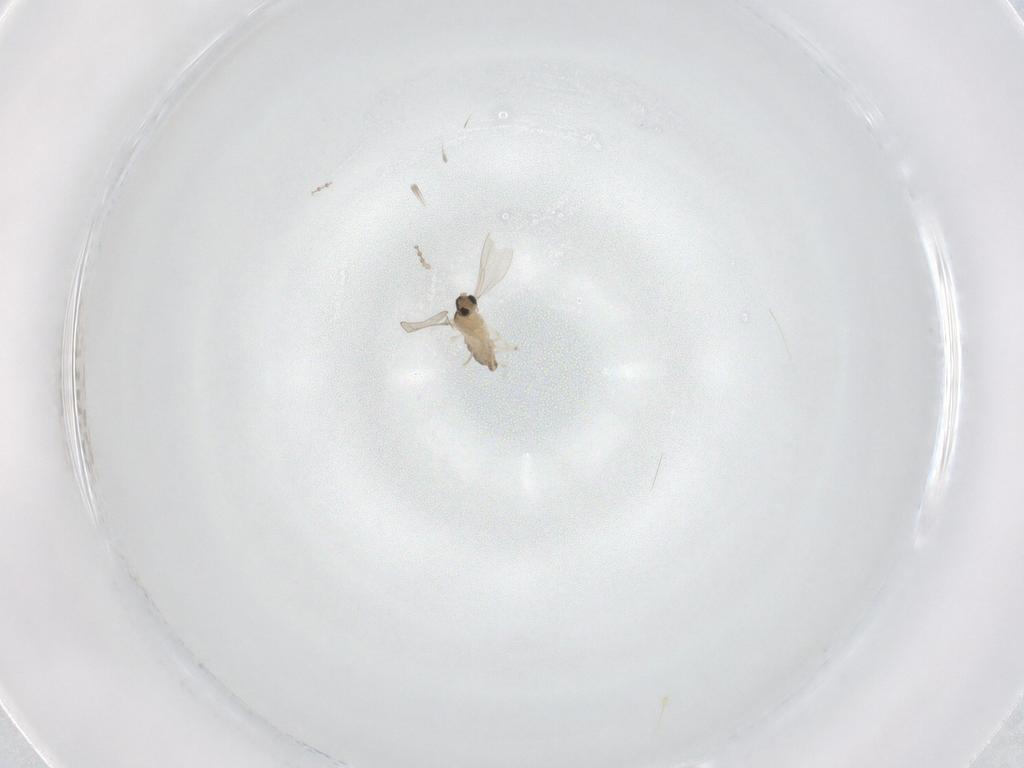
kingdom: Animalia
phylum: Arthropoda
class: Insecta
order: Diptera
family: Cecidomyiidae
